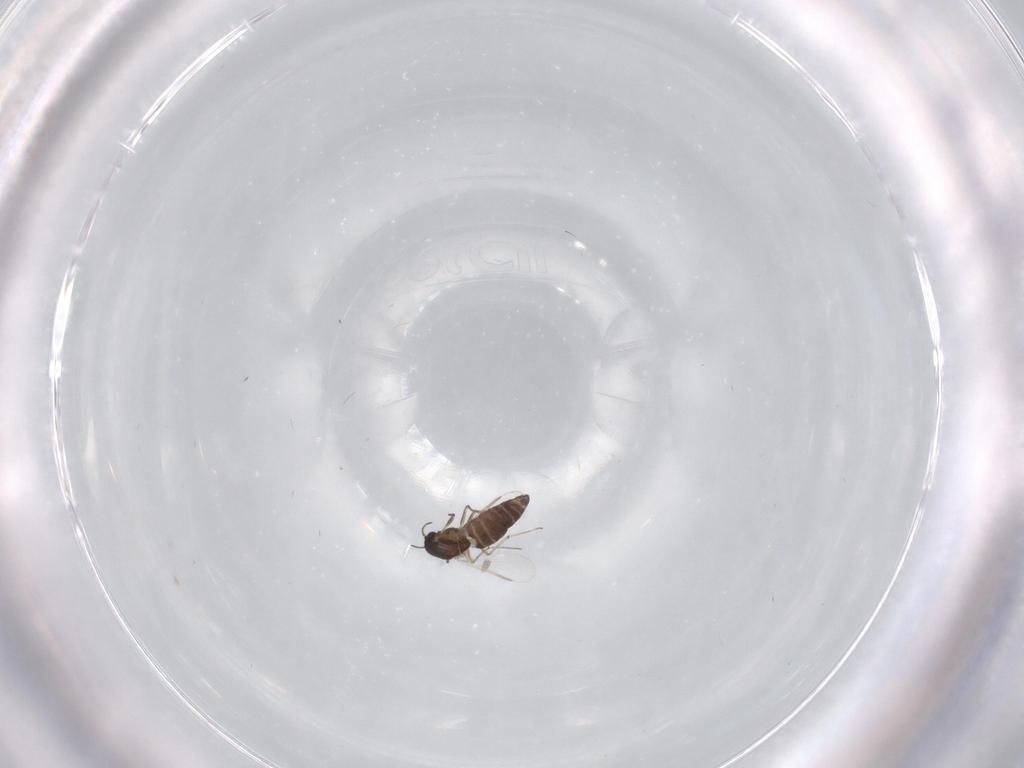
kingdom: Animalia
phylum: Arthropoda
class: Insecta
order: Diptera
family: Chironomidae
